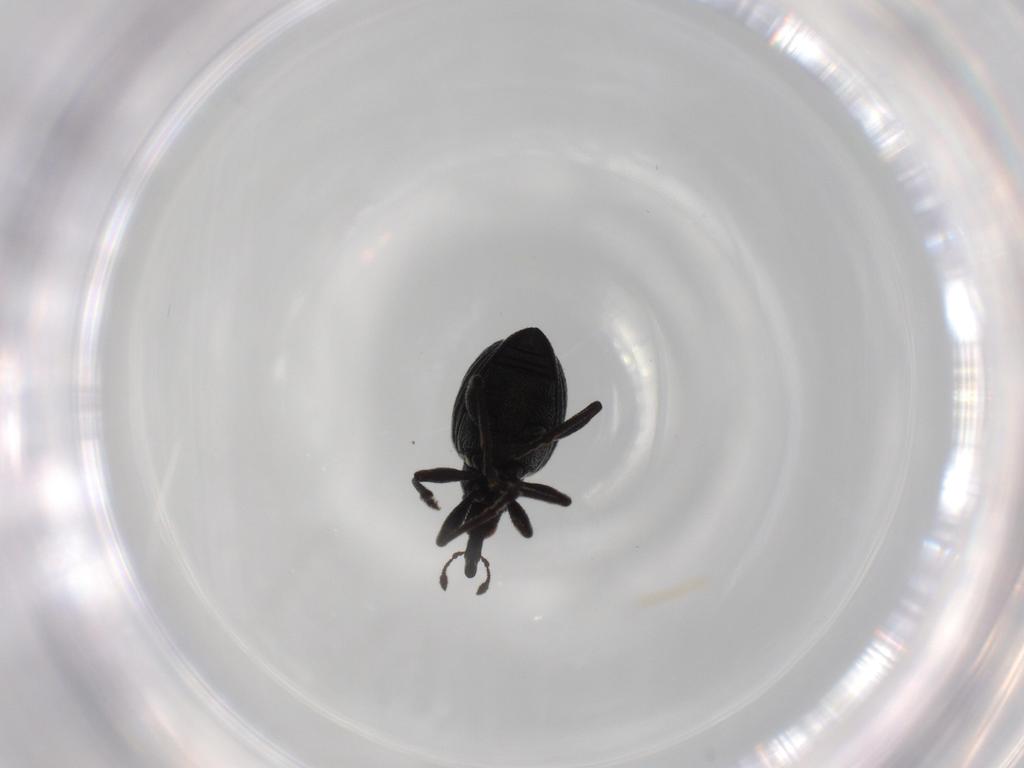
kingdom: Animalia
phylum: Arthropoda
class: Insecta
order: Coleoptera
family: Brentidae
